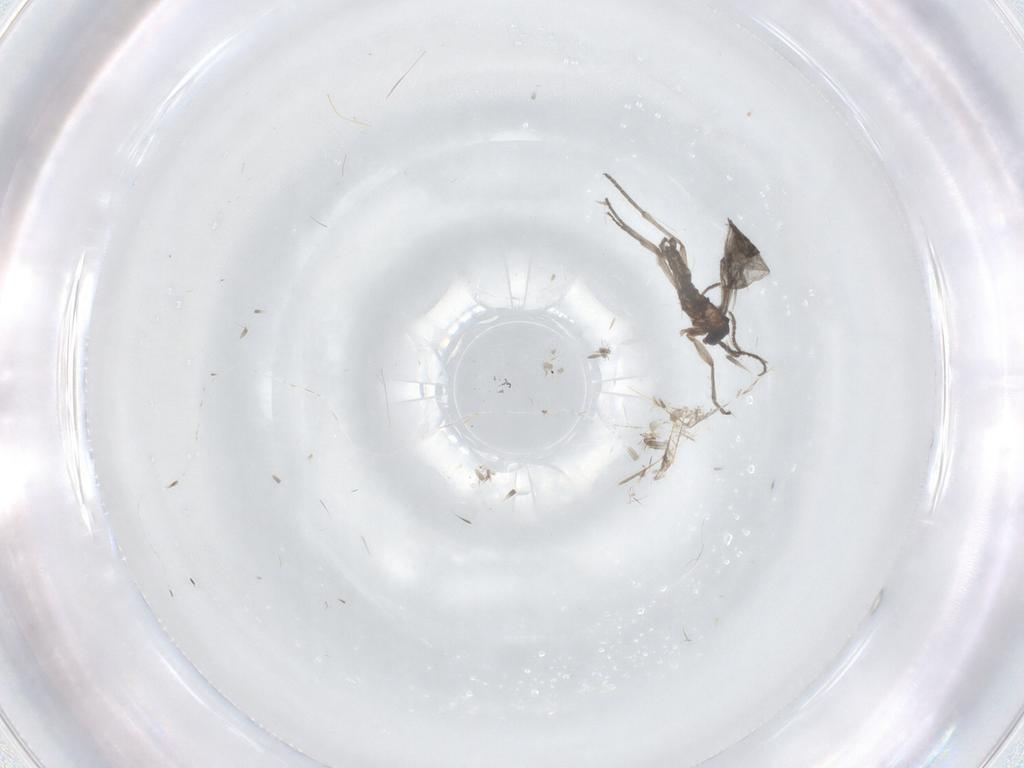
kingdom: Animalia
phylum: Arthropoda
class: Insecta
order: Diptera
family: Sciaridae
